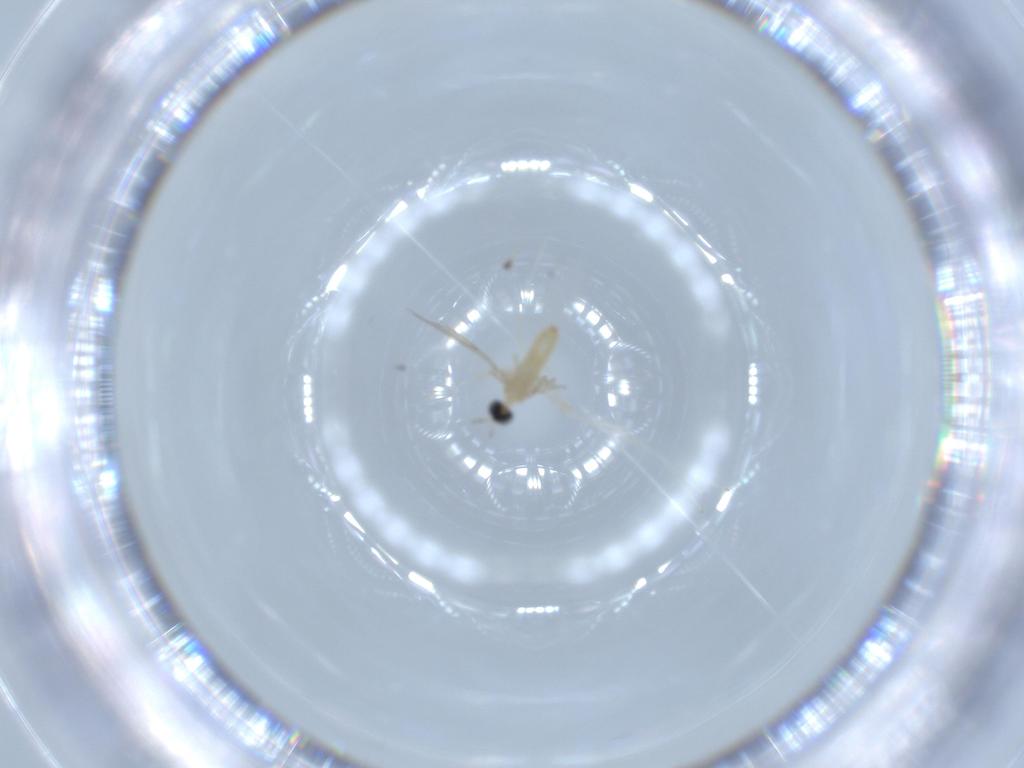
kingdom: Animalia
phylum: Arthropoda
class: Insecta
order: Diptera
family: Cecidomyiidae
